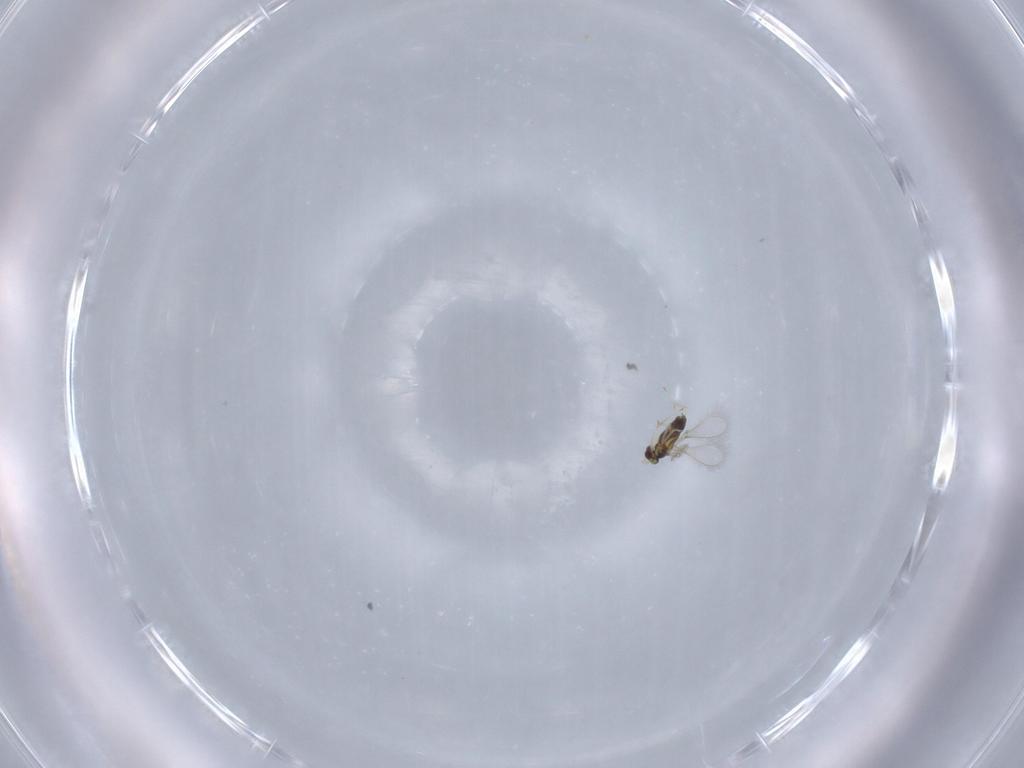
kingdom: Animalia
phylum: Arthropoda
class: Insecta
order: Hymenoptera
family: Mymaridae
